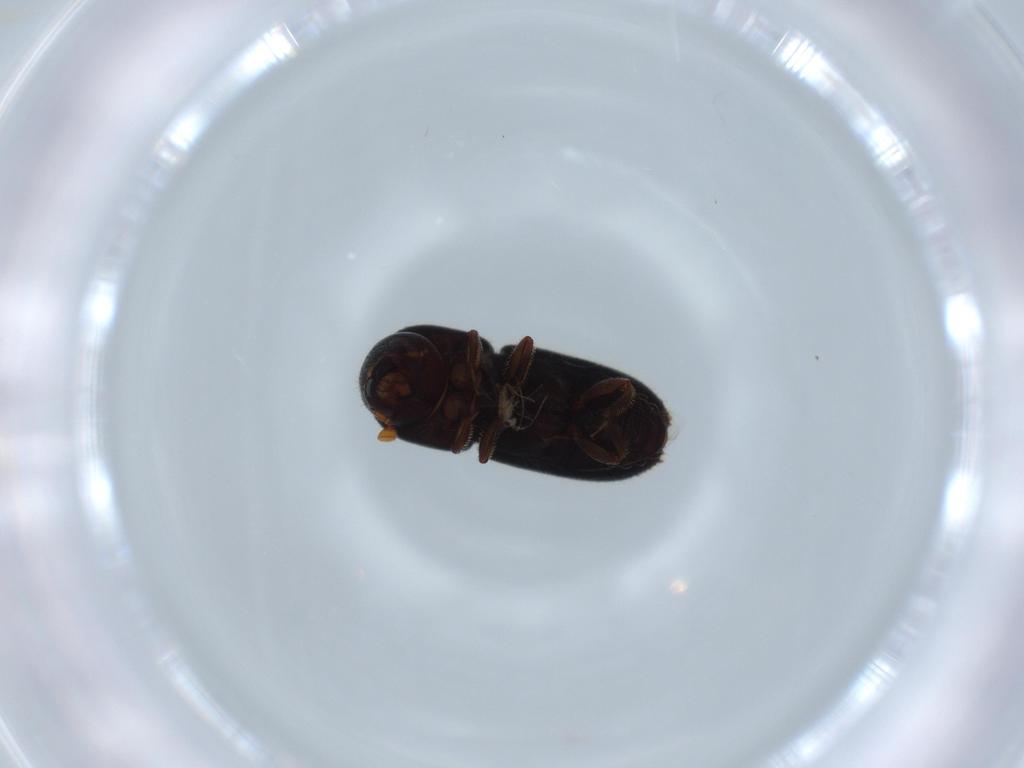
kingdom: Animalia
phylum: Arthropoda
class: Insecta
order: Coleoptera
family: Curculionidae
